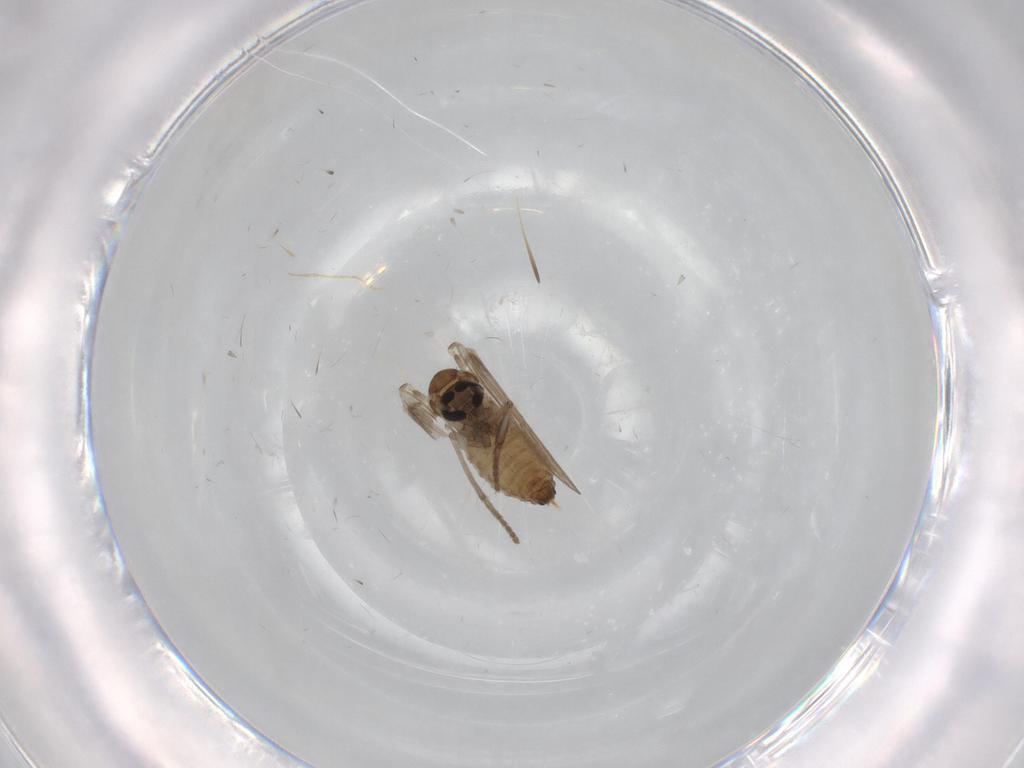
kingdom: Animalia
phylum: Arthropoda
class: Insecta
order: Diptera
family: Psychodidae
